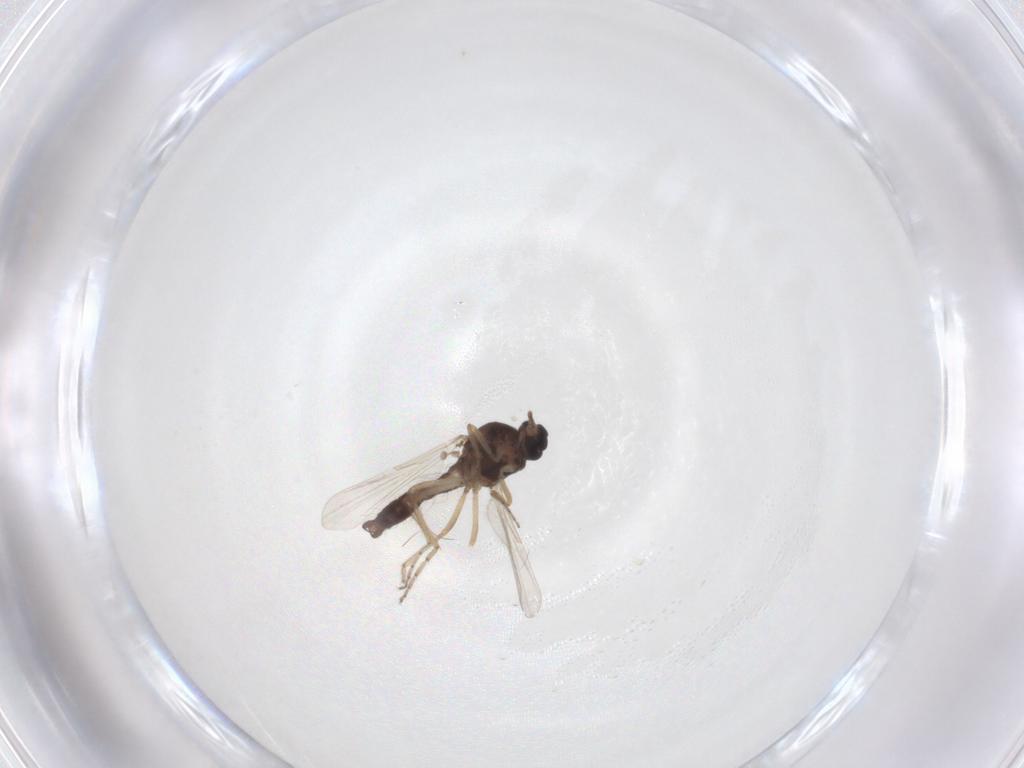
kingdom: Animalia
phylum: Arthropoda
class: Insecta
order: Diptera
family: Ceratopogonidae
